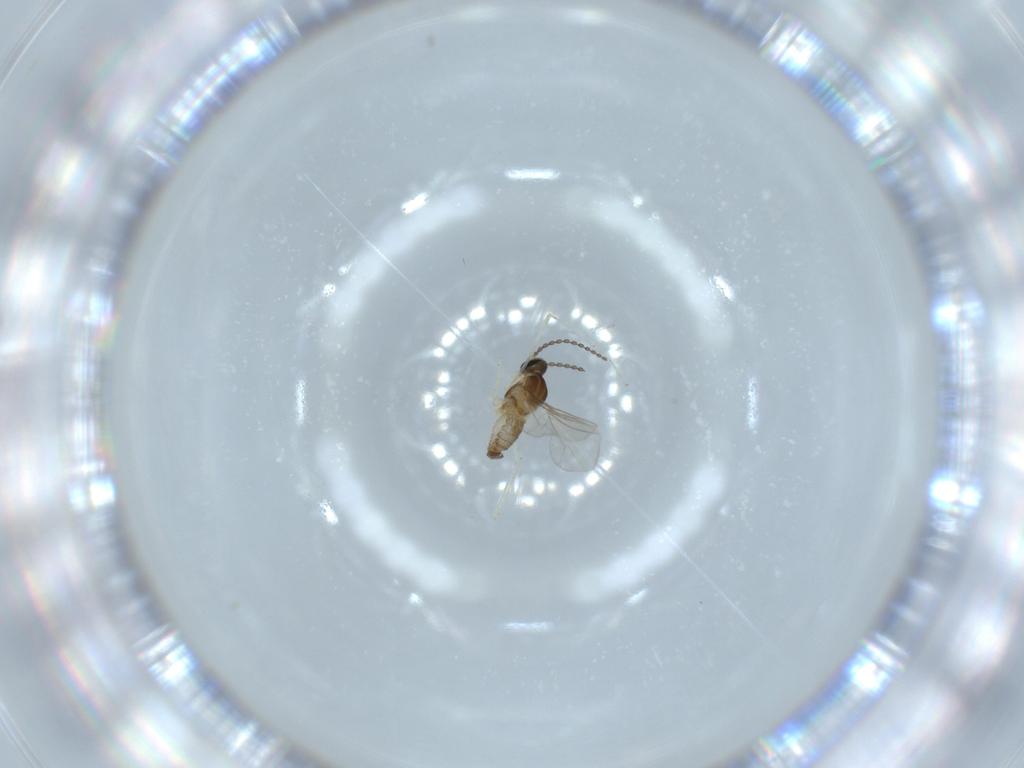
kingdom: Animalia
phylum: Arthropoda
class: Insecta
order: Diptera
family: Cecidomyiidae
